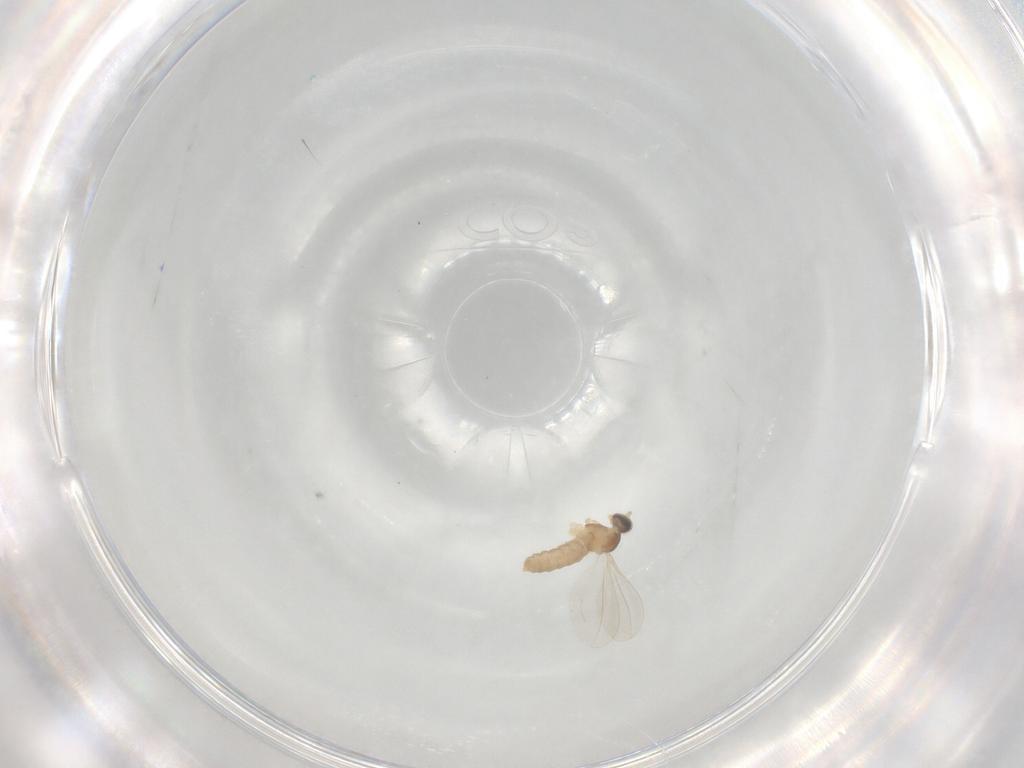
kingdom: Animalia
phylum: Arthropoda
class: Insecta
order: Diptera
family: Cecidomyiidae
